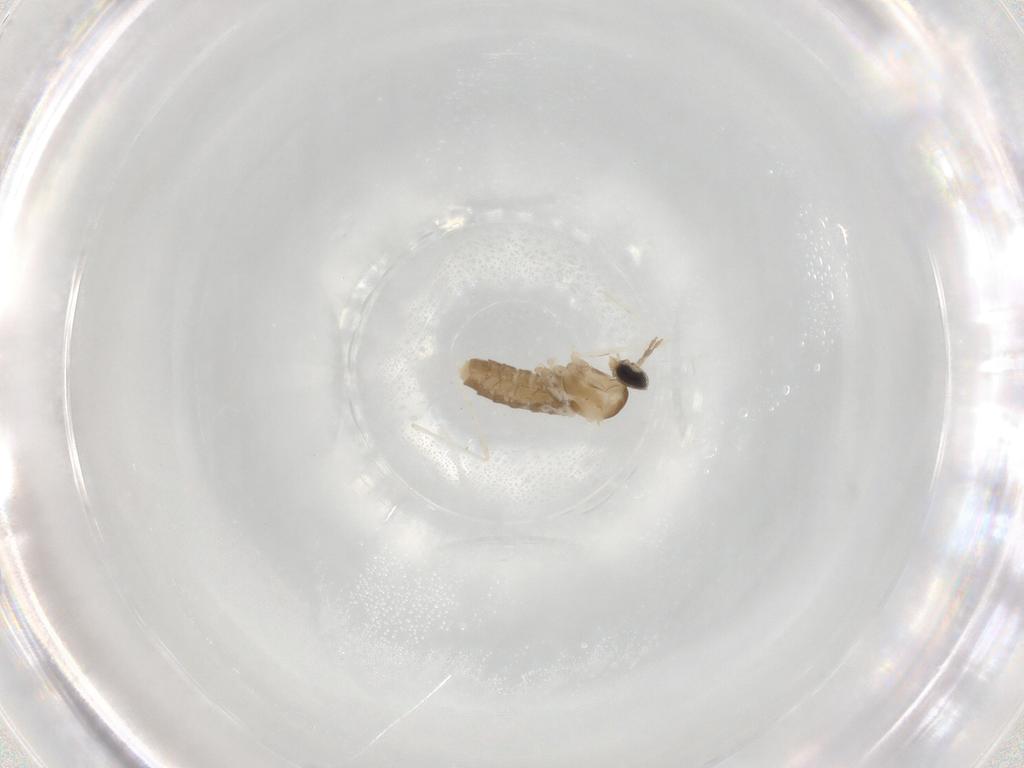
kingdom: Animalia
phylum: Arthropoda
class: Insecta
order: Diptera
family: Cecidomyiidae
